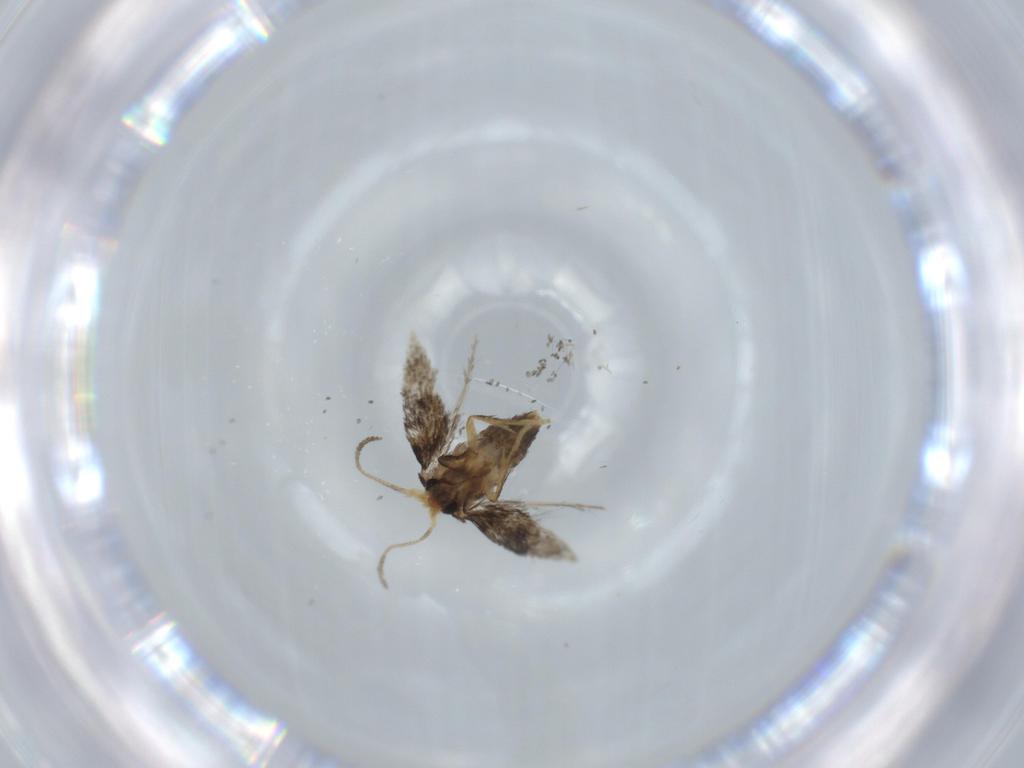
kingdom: Animalia
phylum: Arthropoda
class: Insecta
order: Lepidoptera
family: Nepticulidae
